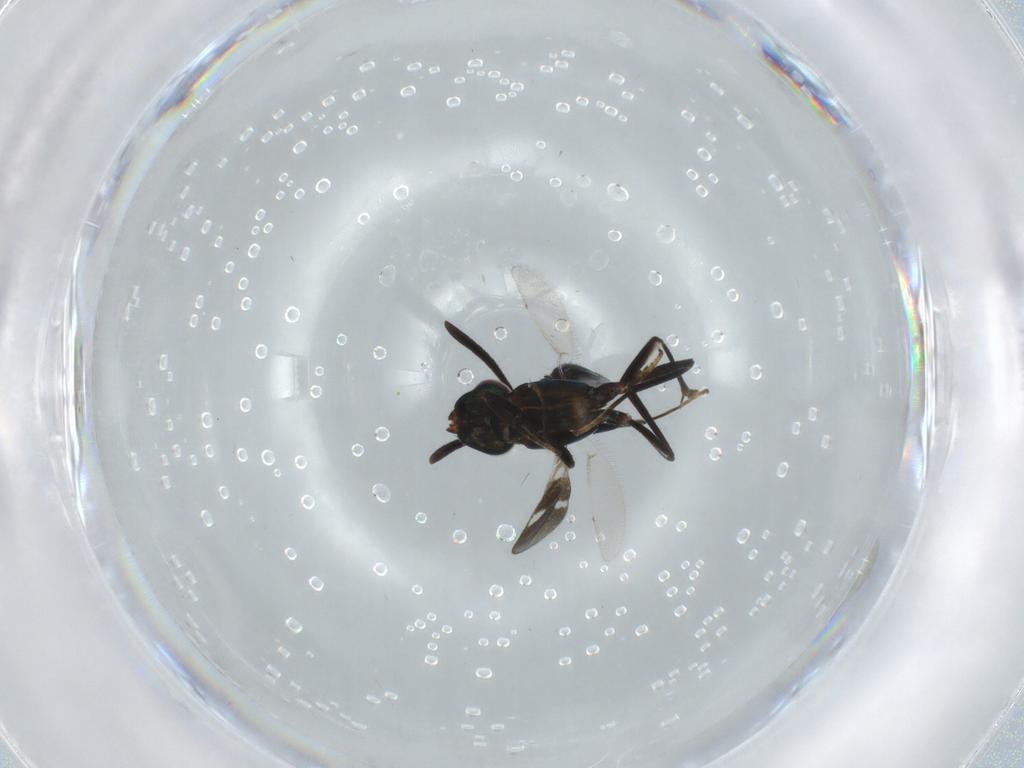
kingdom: Animalia
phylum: Arthropoda
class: Insecta
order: Hymenoptera
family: Eupelmidae
